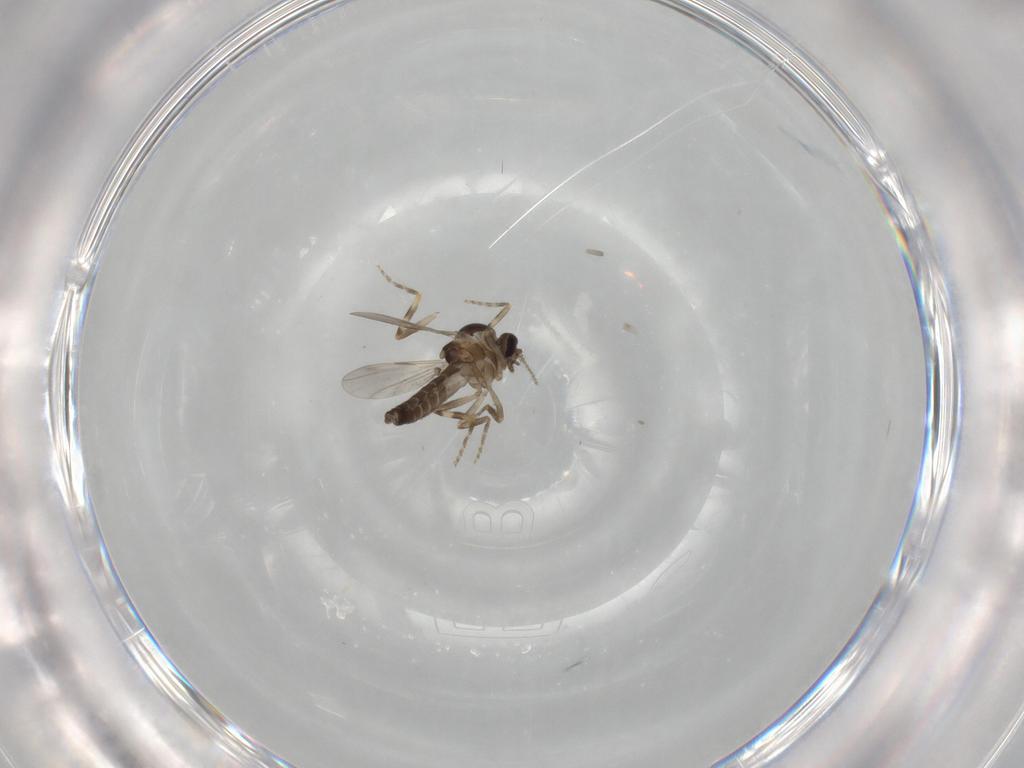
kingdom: Animalia
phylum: Arthropoda
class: Insecta
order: Diptera
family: Ceratopogonidae
